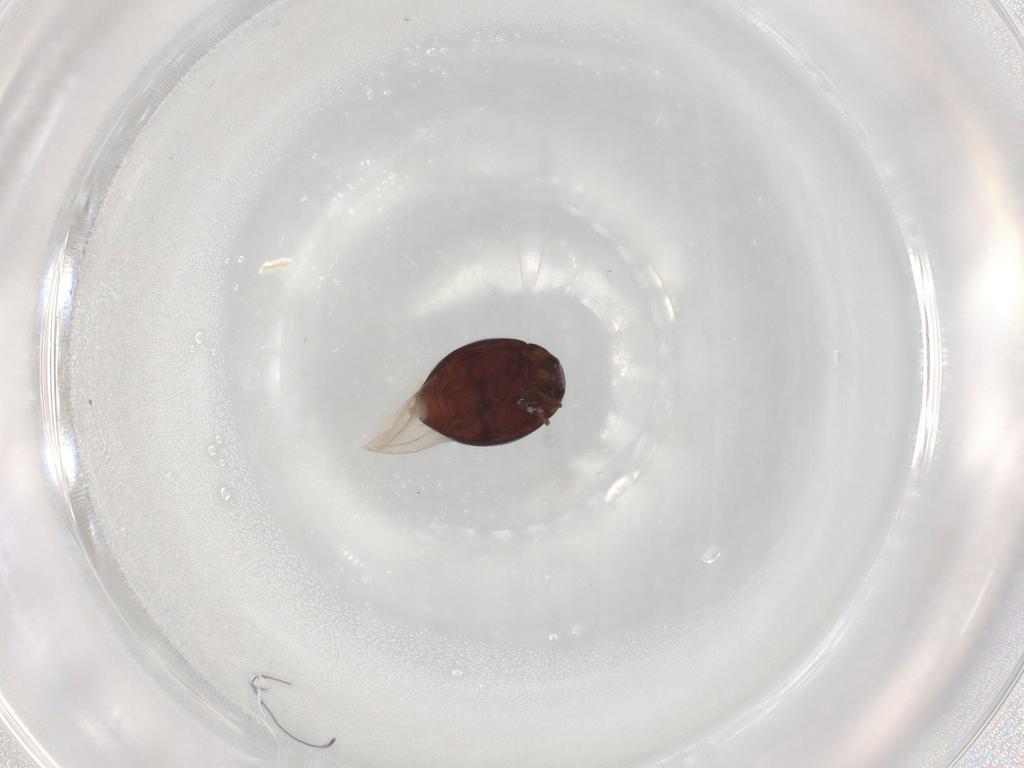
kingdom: Animalia
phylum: Arthropoda
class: Insecta
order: Coleoptera
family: Coccinellidae
